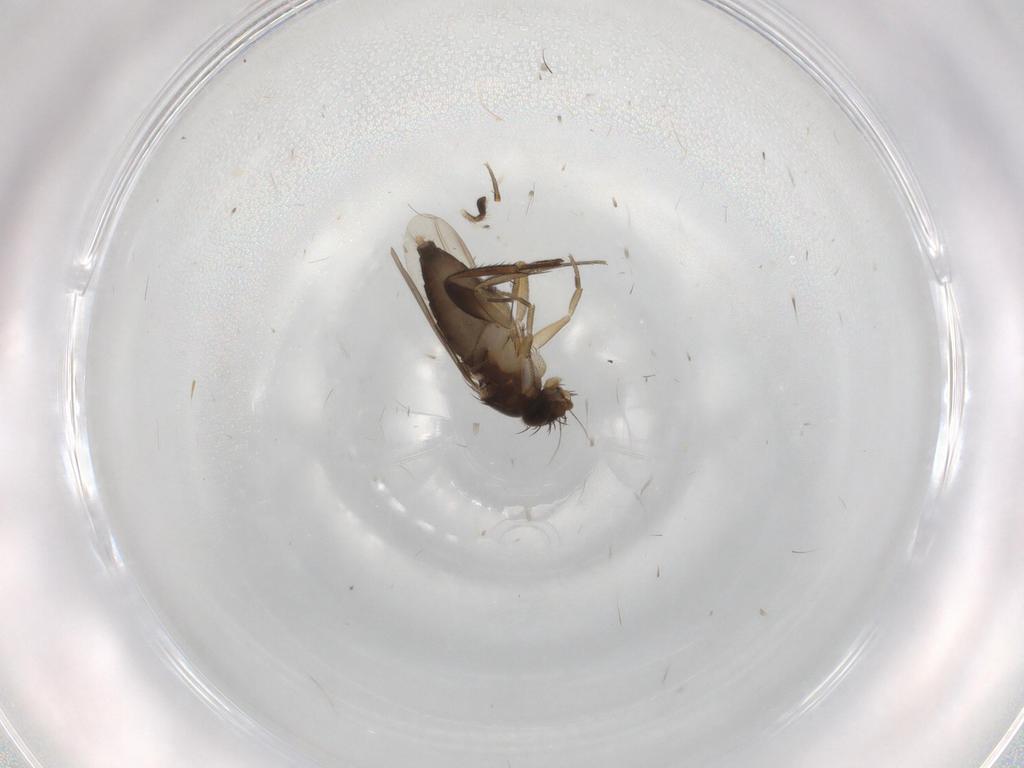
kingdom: Animalia
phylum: Arthropoda
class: Insecta
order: Diptera
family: Phoridae
